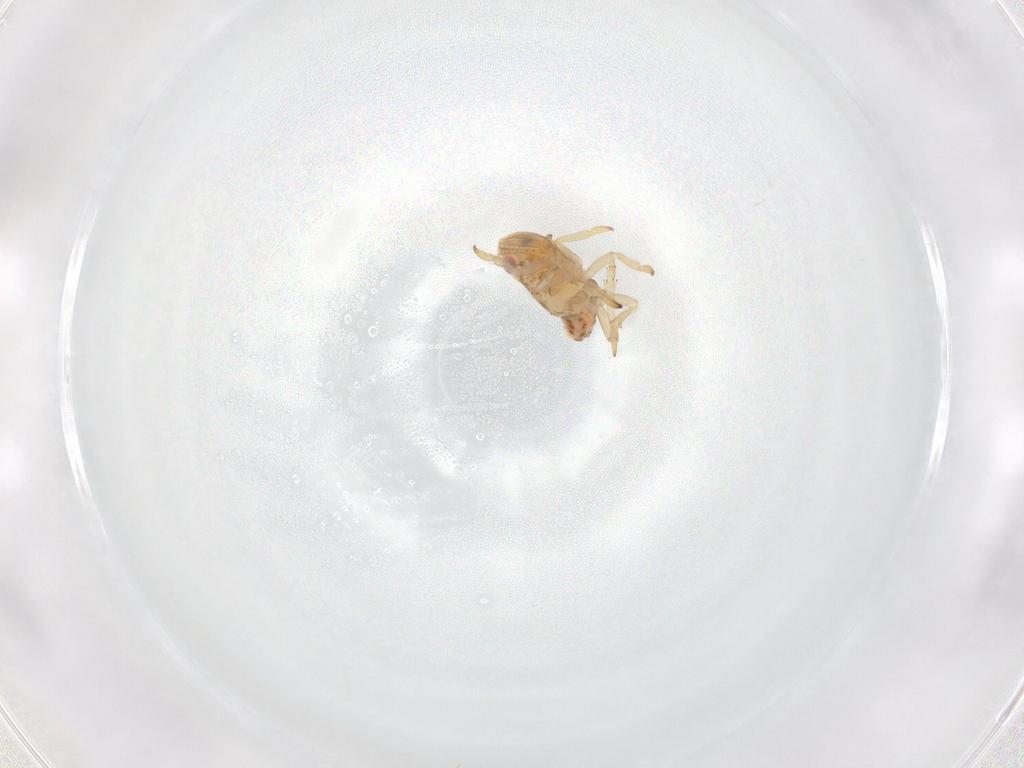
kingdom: Animalia
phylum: Arthropoda
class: Insecta
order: Hemiptera
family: Fulgoroidea_incertae_sedis
